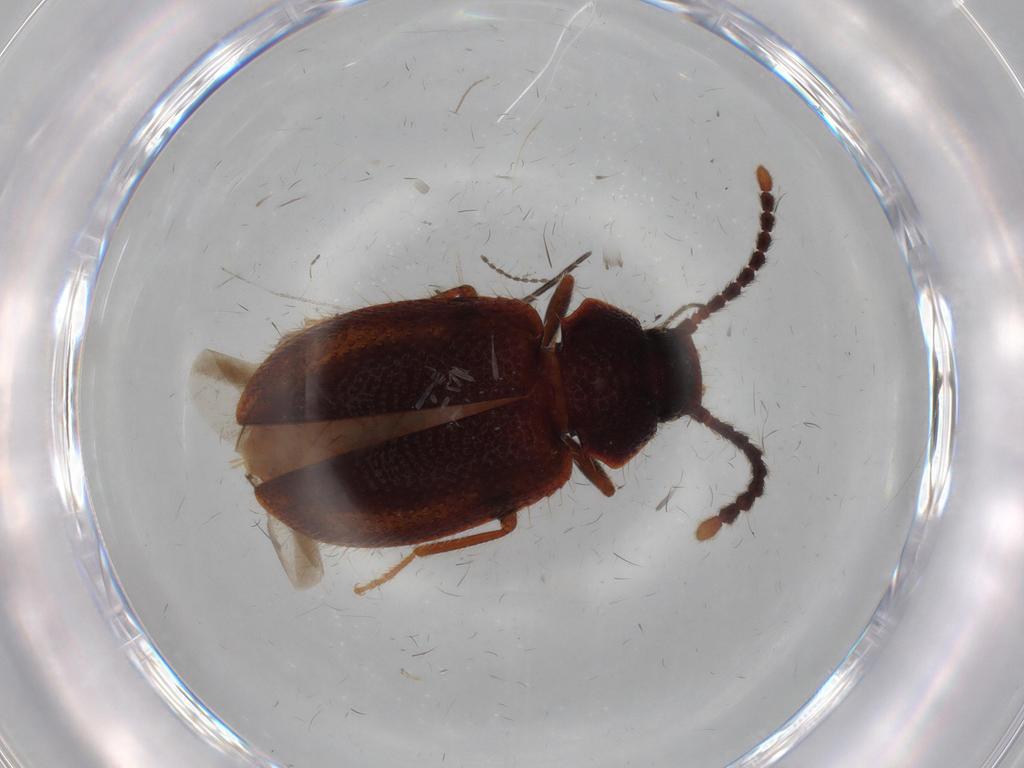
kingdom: Animalia
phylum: Arthropoda
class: Insecta
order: Coleoptera
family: Tenebrionidae
